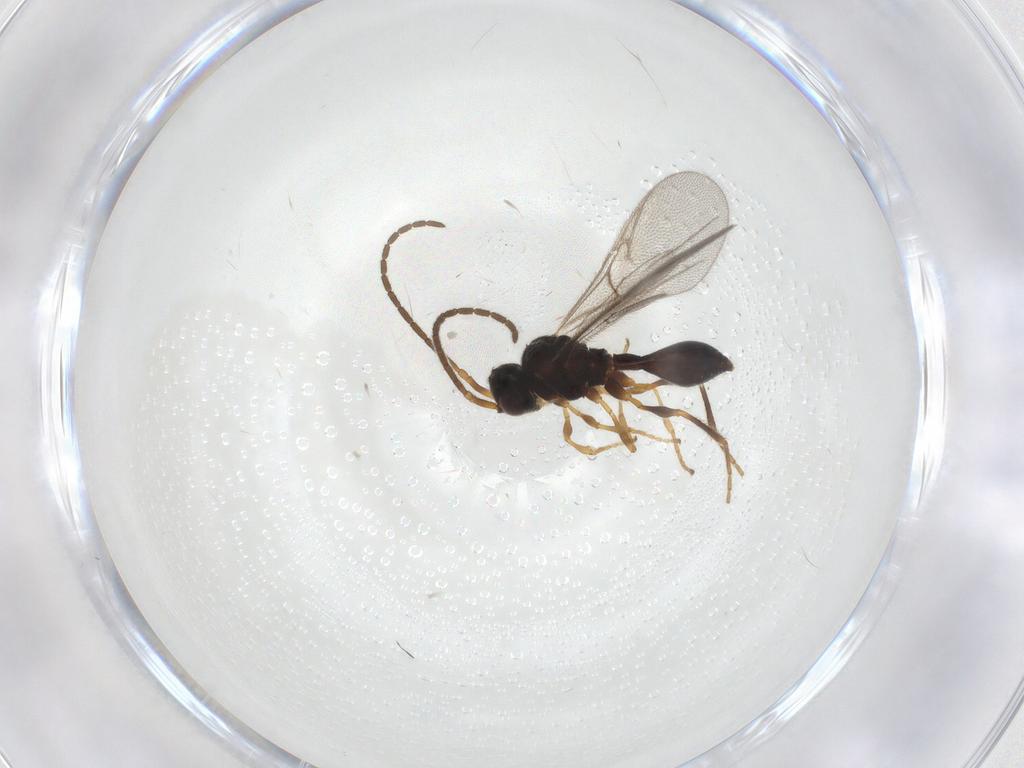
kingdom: Animalia
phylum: Arthropoda
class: Insecta
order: Hymenoptera
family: Diapriidae
